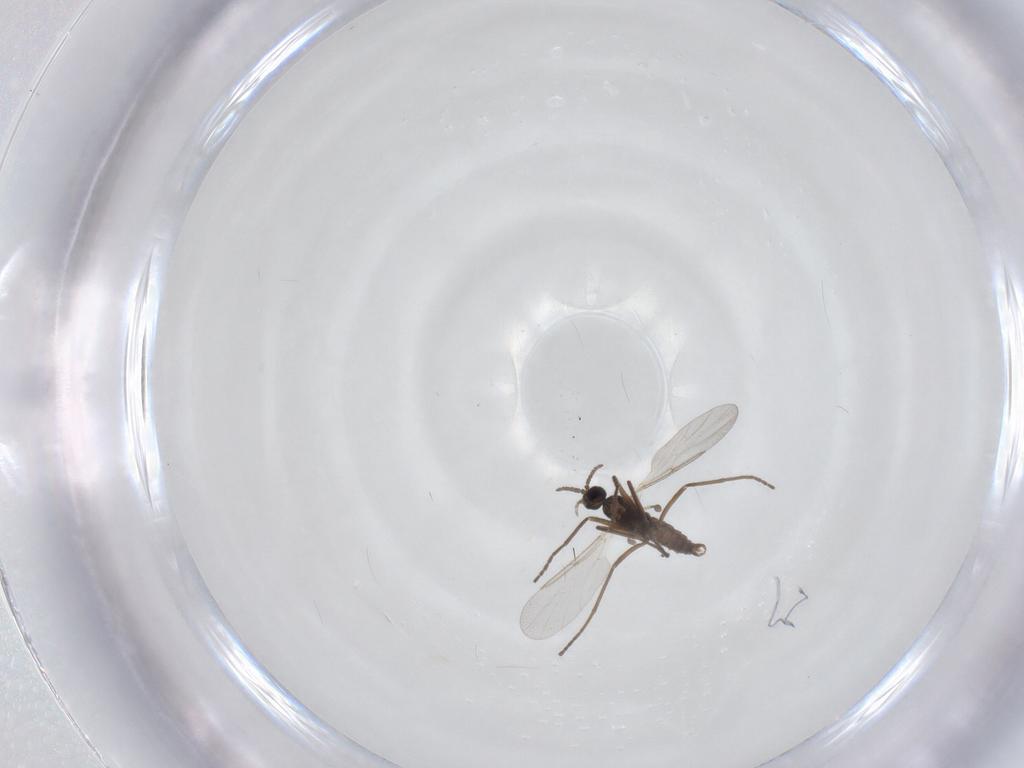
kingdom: Animalia
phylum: Arthropoda
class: Insecta
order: Diptera
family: Cecidomyiidae
